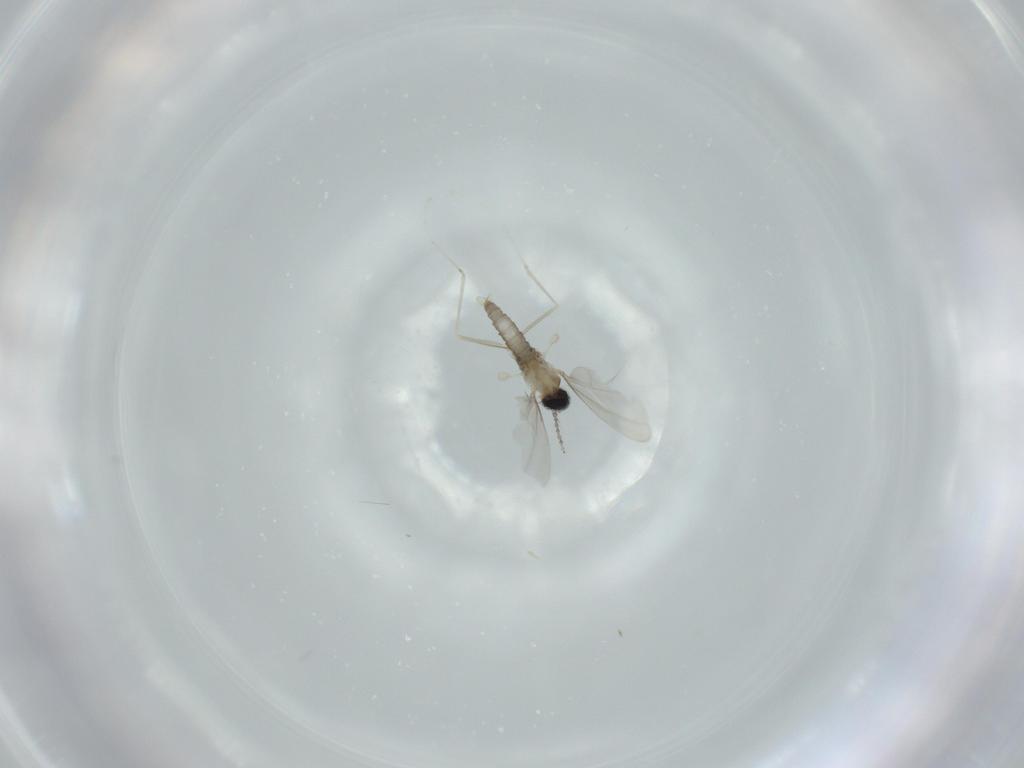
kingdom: Animalia
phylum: Arthropoda
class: Insecta
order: Diptera
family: Cecidomyiidae
